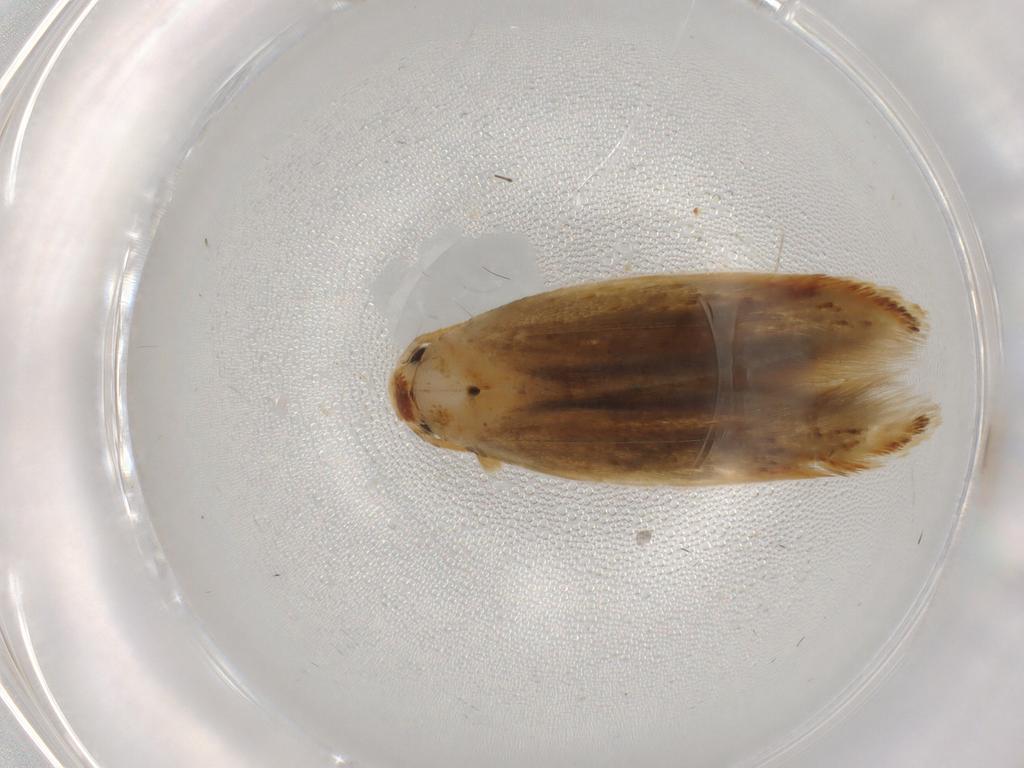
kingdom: Animalia
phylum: Arthropoda
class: Insecta
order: Lepidoptera
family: Tineidae
